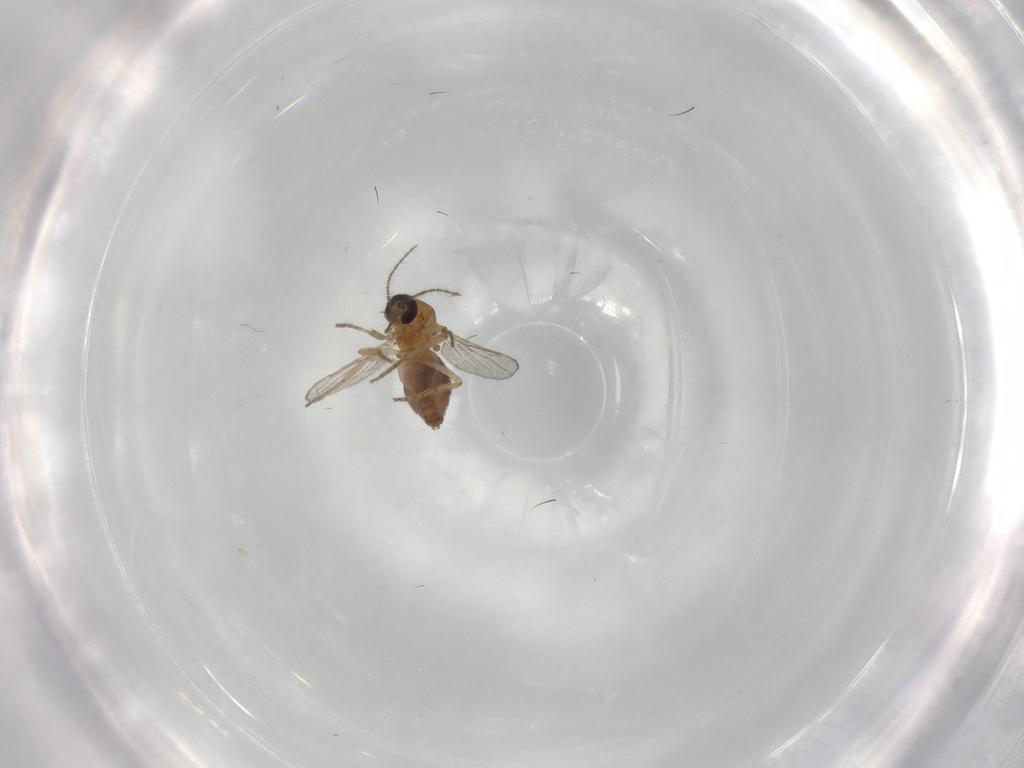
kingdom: Animalia
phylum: Arthropoda
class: Insecta
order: Diptera
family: Ceratopogonidae
